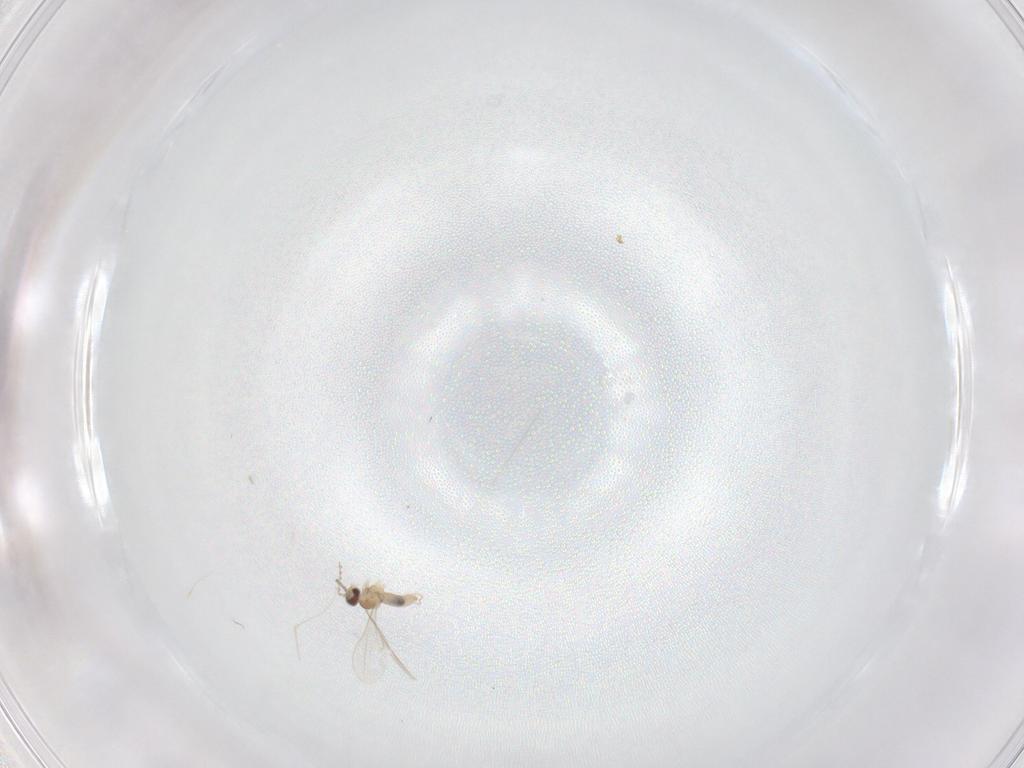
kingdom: Animalia
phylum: Arthropoda
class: Insecta
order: Diptera
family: Cecidomyiidae
